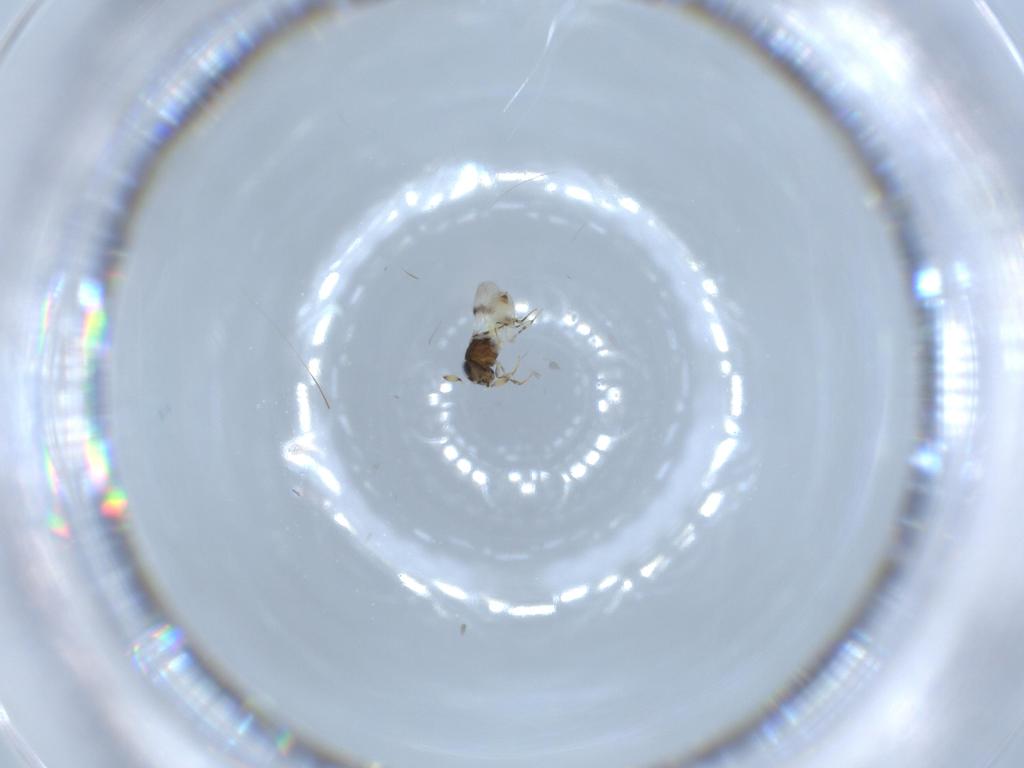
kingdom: Animalia
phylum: Arthropoda
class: Insecta
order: Hymenoptera
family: Scelionidae
